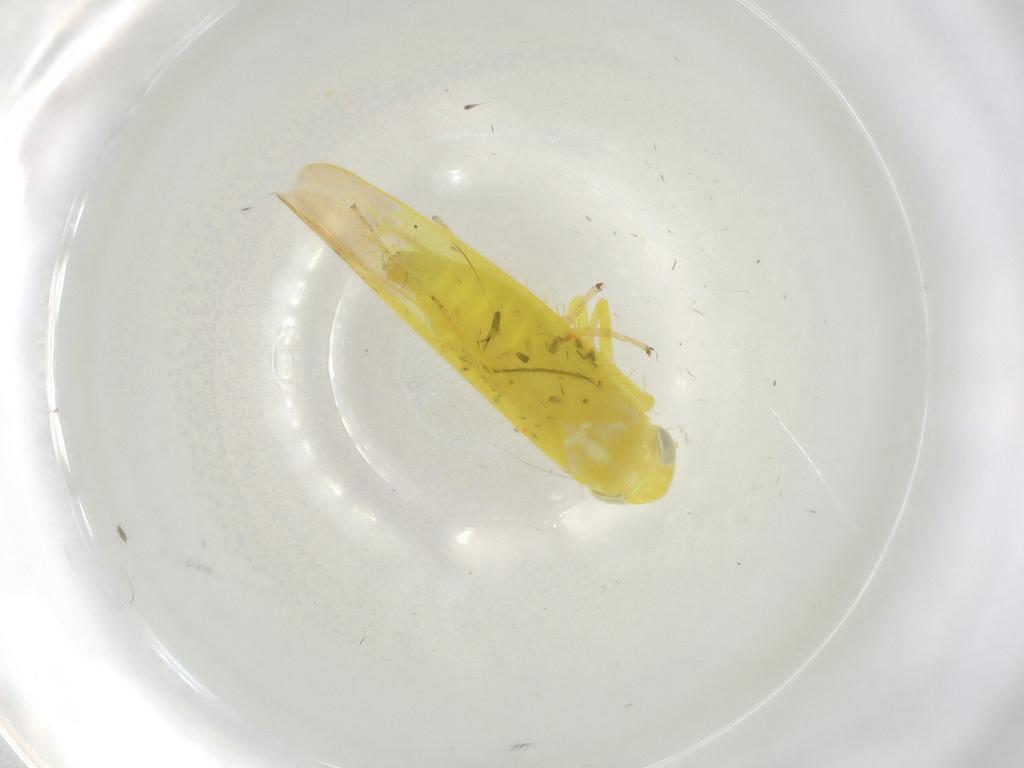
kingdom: Animalia
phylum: Arthropoda
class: Insecta
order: Hemiptera
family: Cicadellidae
